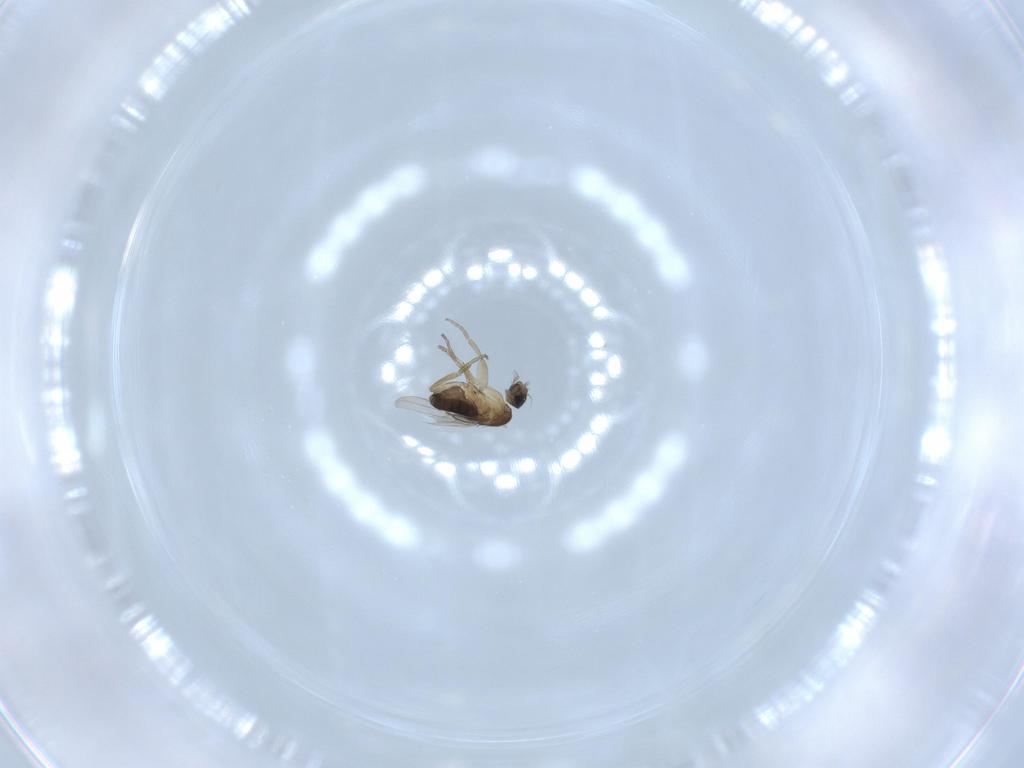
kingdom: Animalia
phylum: Arthropoda
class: Insecta
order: Diptera
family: Phoridae
